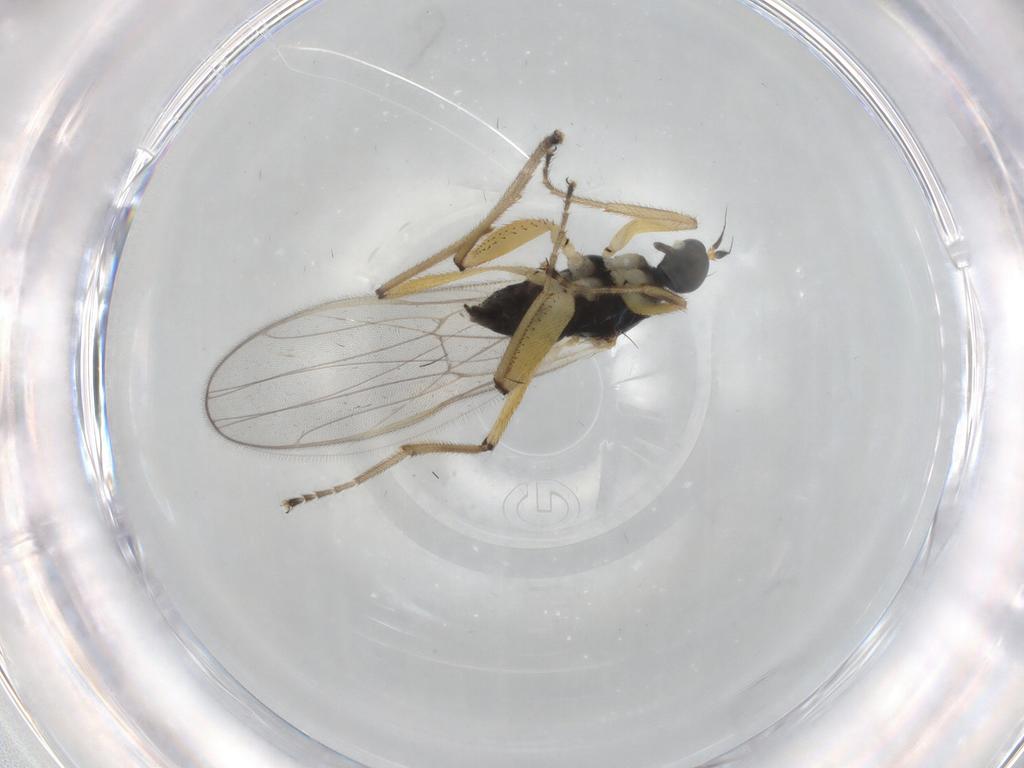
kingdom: Animalia
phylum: Arthropoda
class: Insecta
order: Diptera
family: Hybotidae
